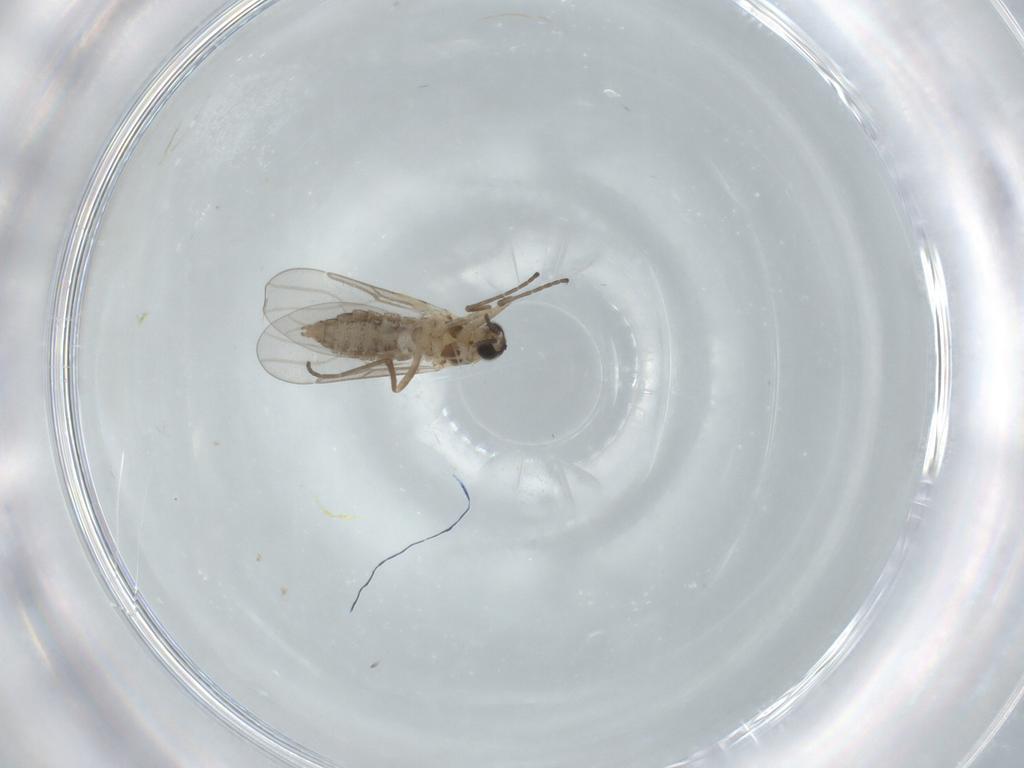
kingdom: Animalia
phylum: Arthropoda
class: Insecta
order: Diptera
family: Cecidomyiidae
